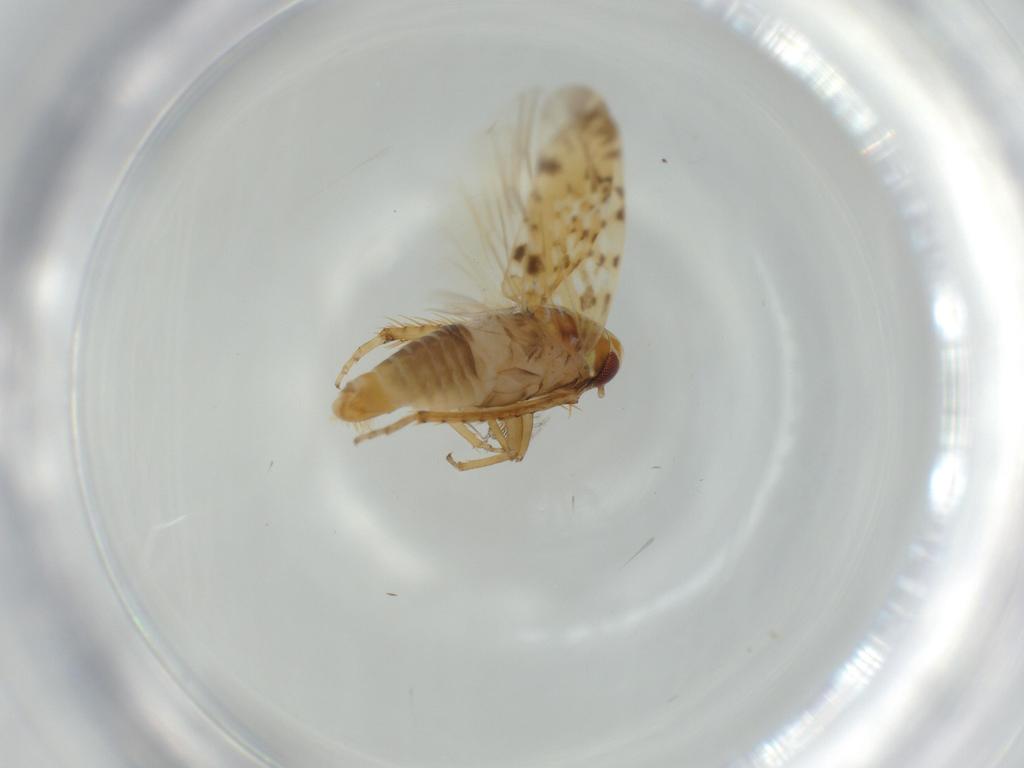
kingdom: Animalia
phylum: Arthropoda
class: Insecta
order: Hemiptera
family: Cicadellidae
